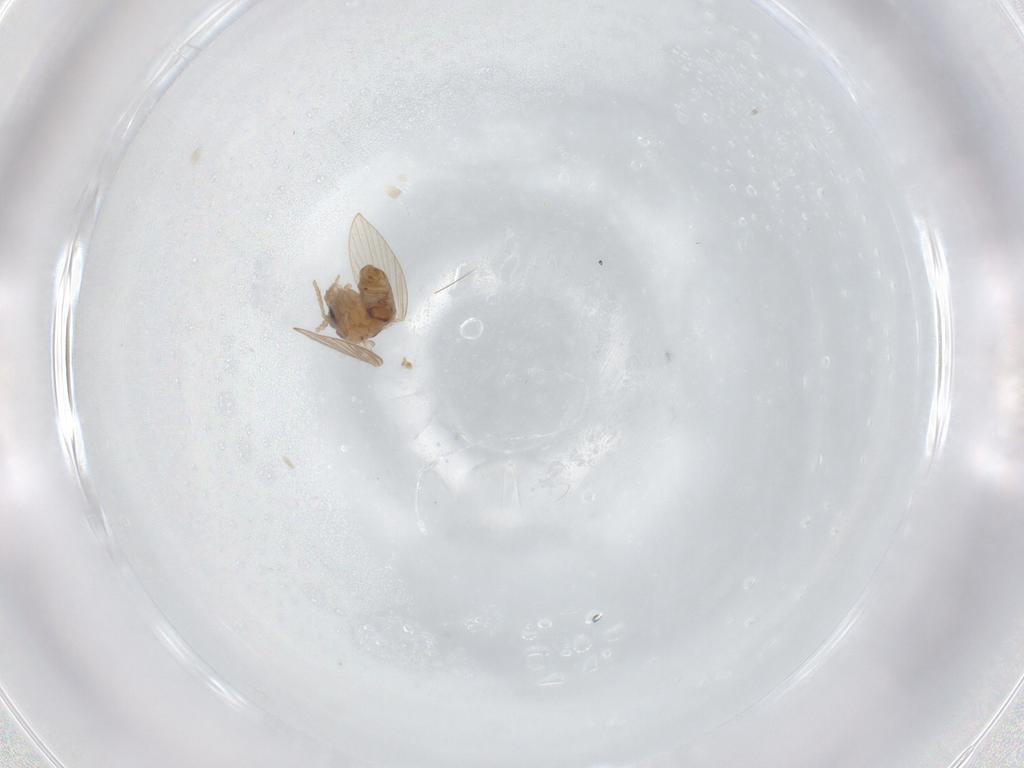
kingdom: Animalia
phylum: Arthropoda
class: Insecta
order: Diptera
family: Psychodidae
